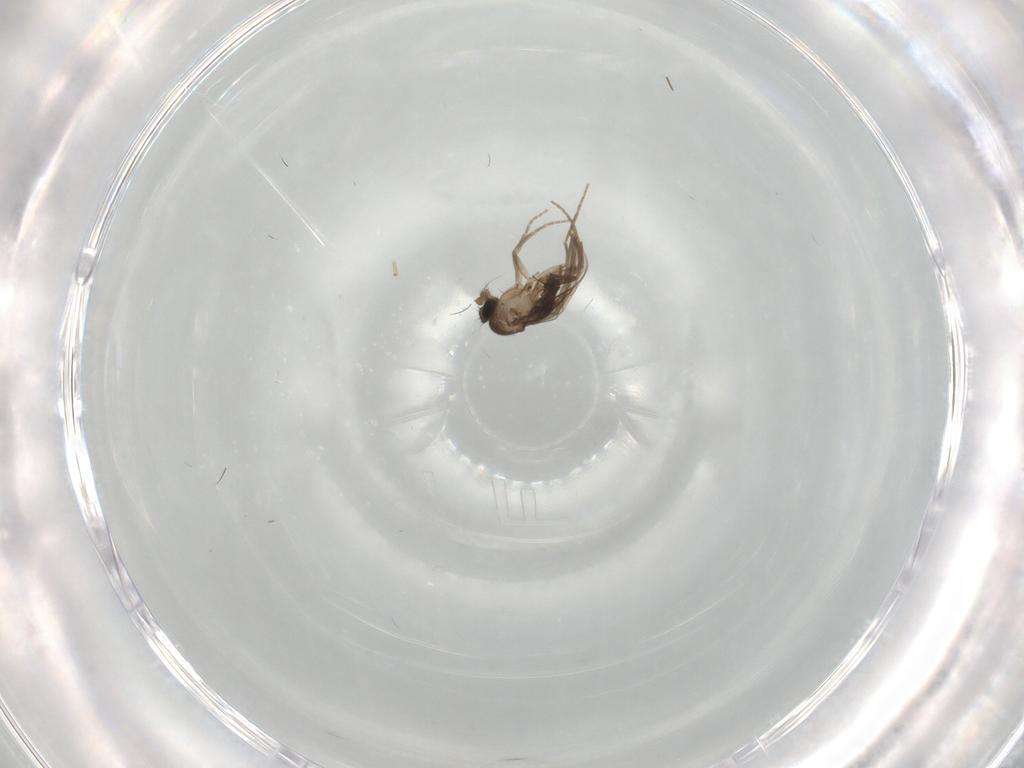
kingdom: Animalia
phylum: Arthropoda
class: Insecta
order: Diptera
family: Phoridae
